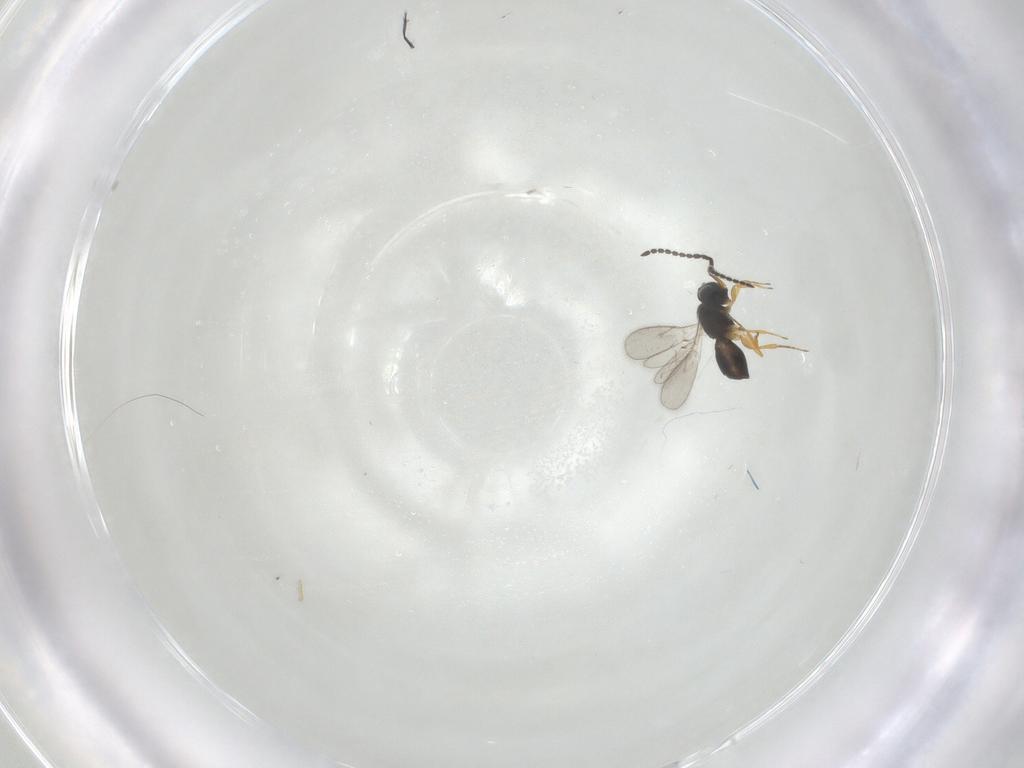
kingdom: Animalia
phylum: Arthropoda
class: Insecta
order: Hymenoptera
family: Scelionidae
